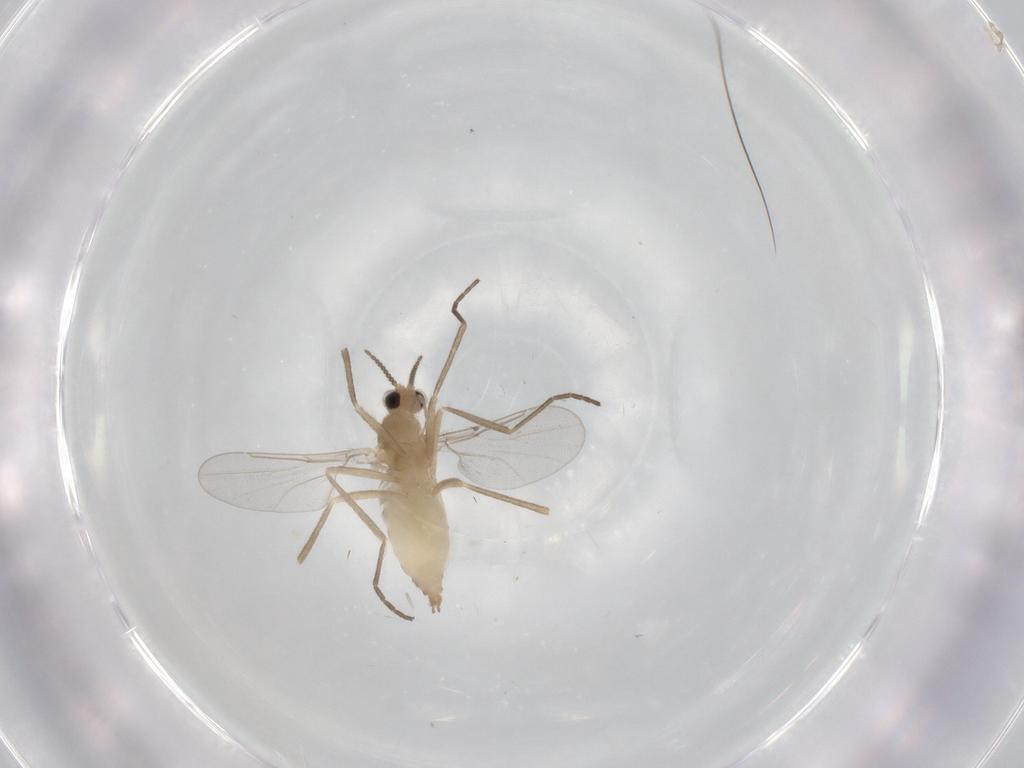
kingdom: Animalia
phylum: Arthropoda
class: Insecta
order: Diptera
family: Cecidomyiidae
